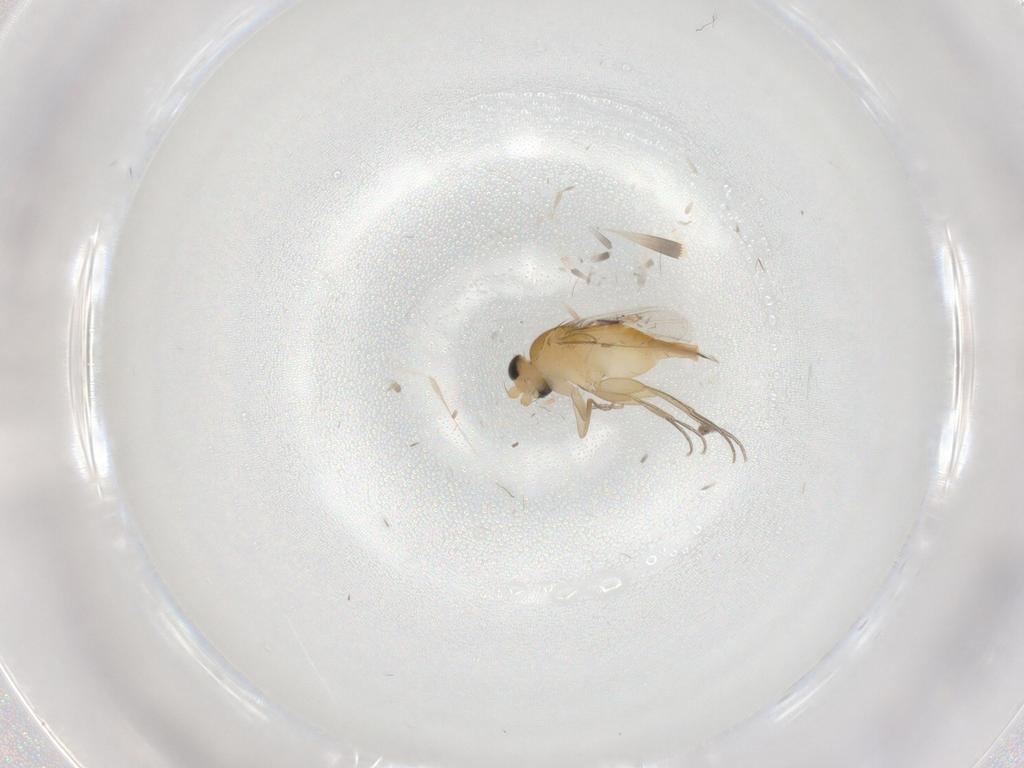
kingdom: Animalia
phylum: Arthropoda
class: Insecta
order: Diptera
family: Phoridae
